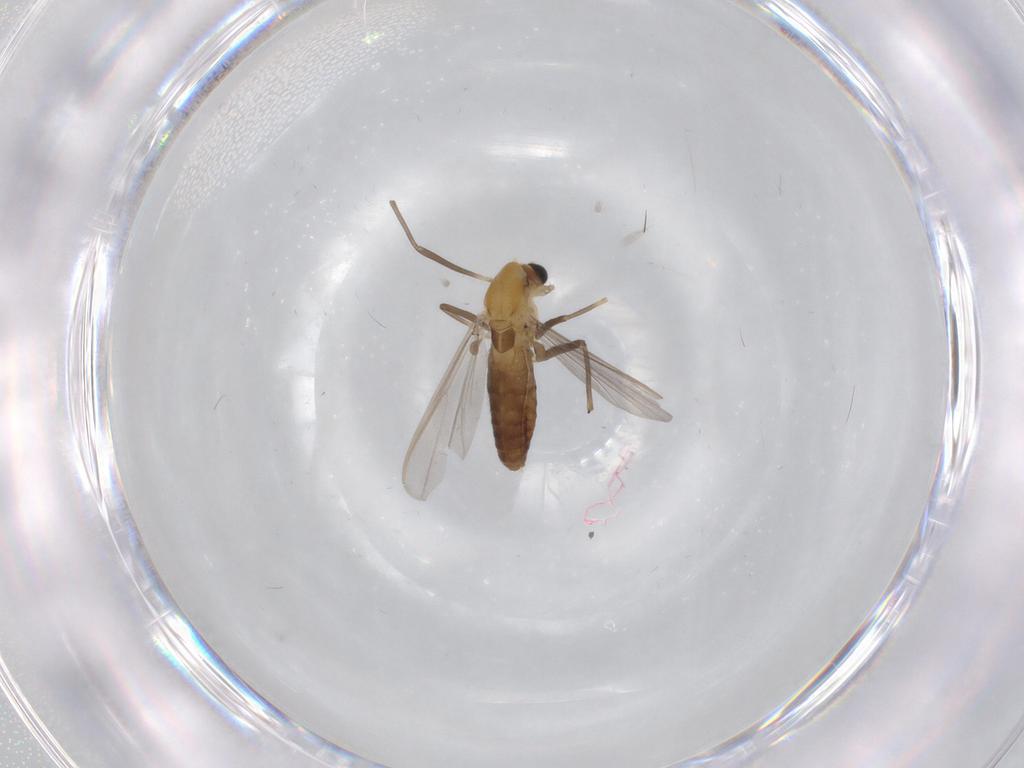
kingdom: Animalia
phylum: Arthropoda
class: Insecta
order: Diptera
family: Chironomidae
